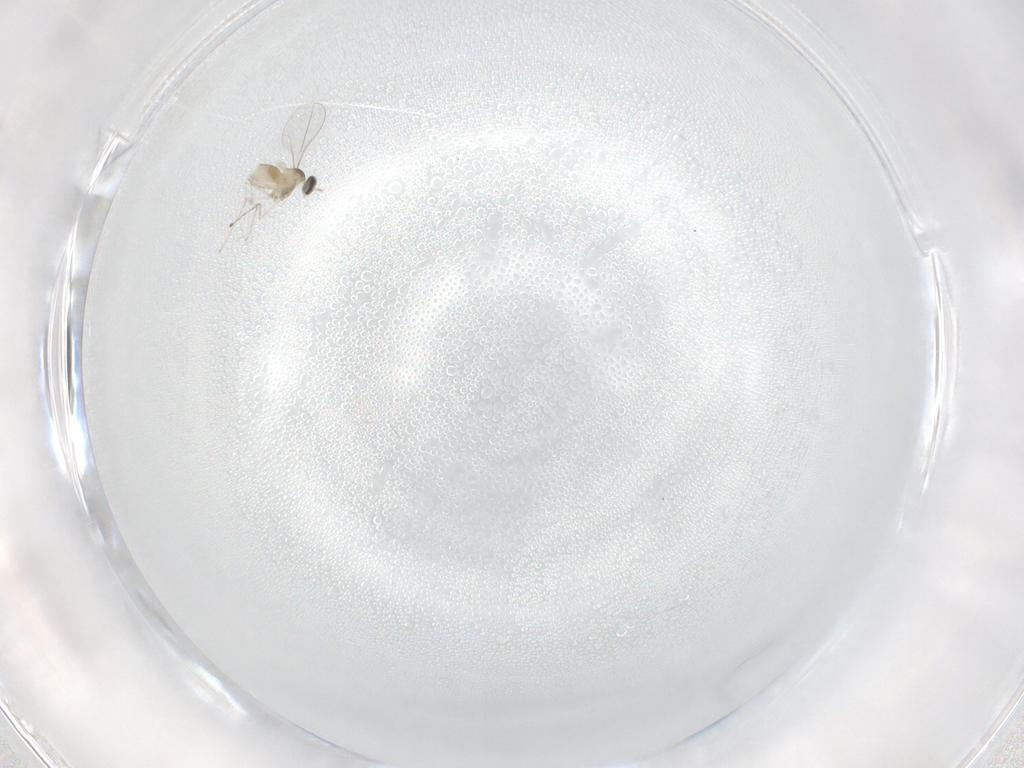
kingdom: Animalia
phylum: Arthropoda
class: Insecta
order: Diptera
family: Cecidomyiidae
